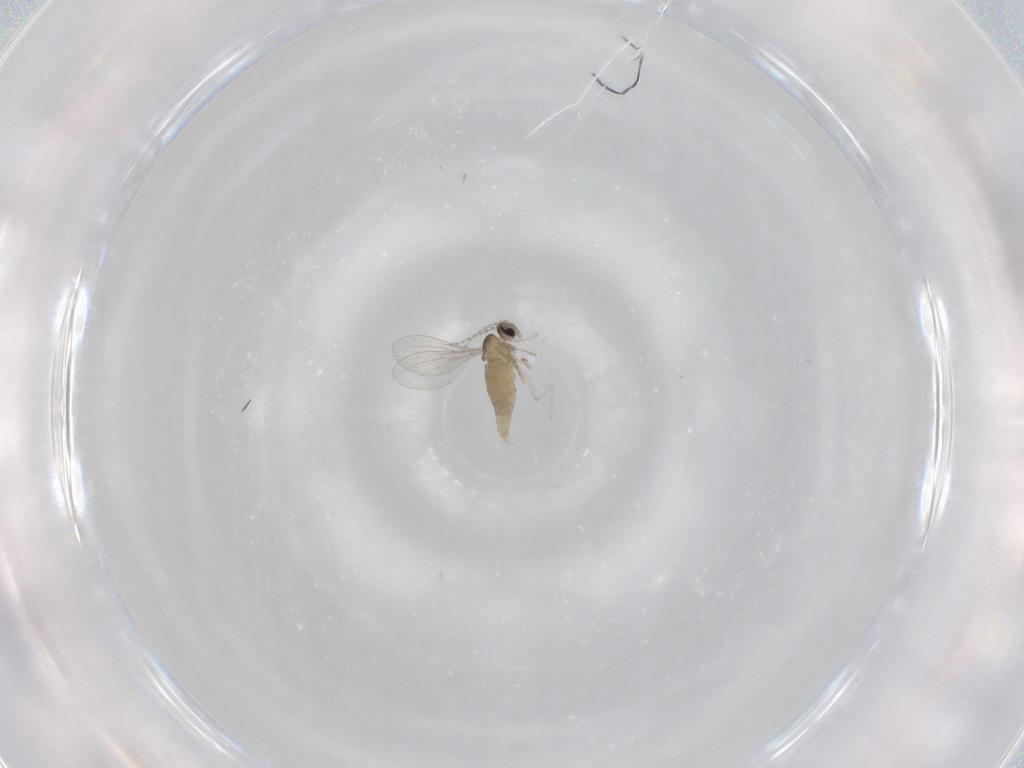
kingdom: Animalia
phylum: Arthropoda
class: Insecta
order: Diptera
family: Cecidomyiidae
